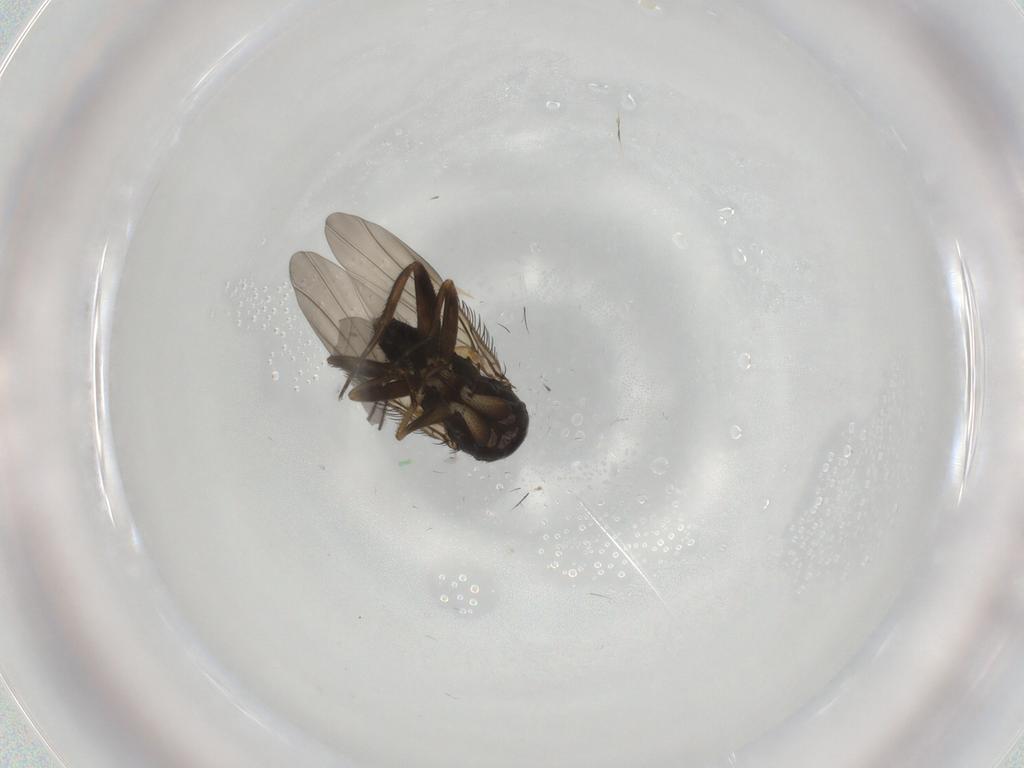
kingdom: Animalia
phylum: Arthropoda
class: Insecta
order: Diptera
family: Phoridae
